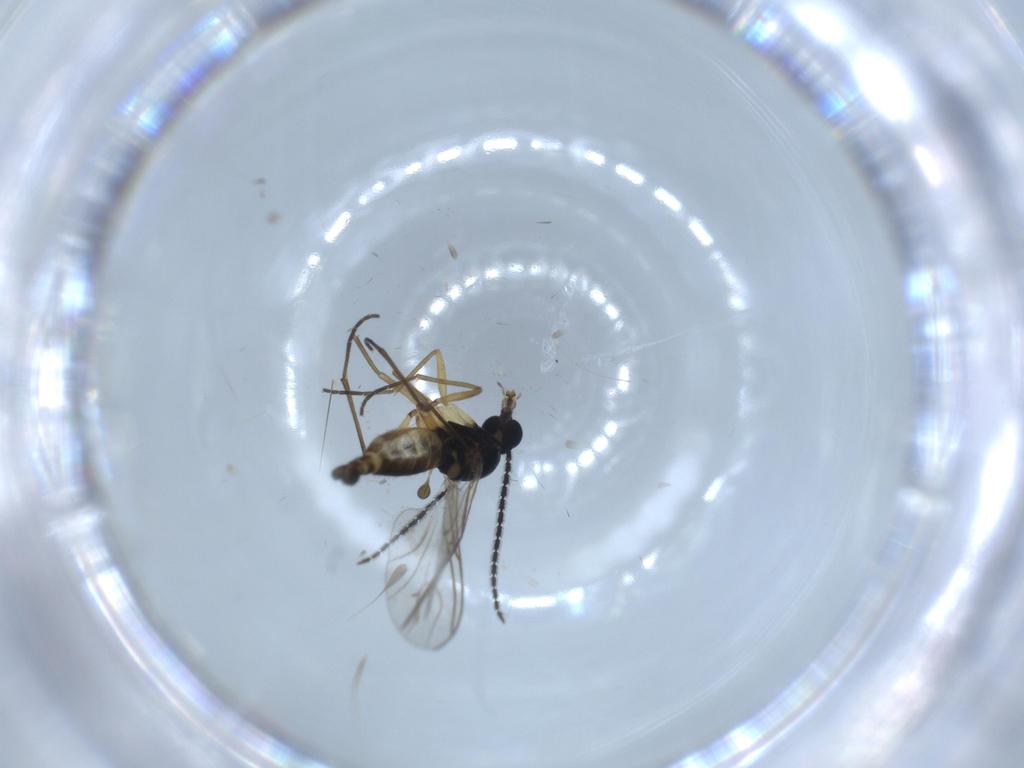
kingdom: Animalia
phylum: Arthropoda
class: Insecta
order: Diptera
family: Sciaridae
